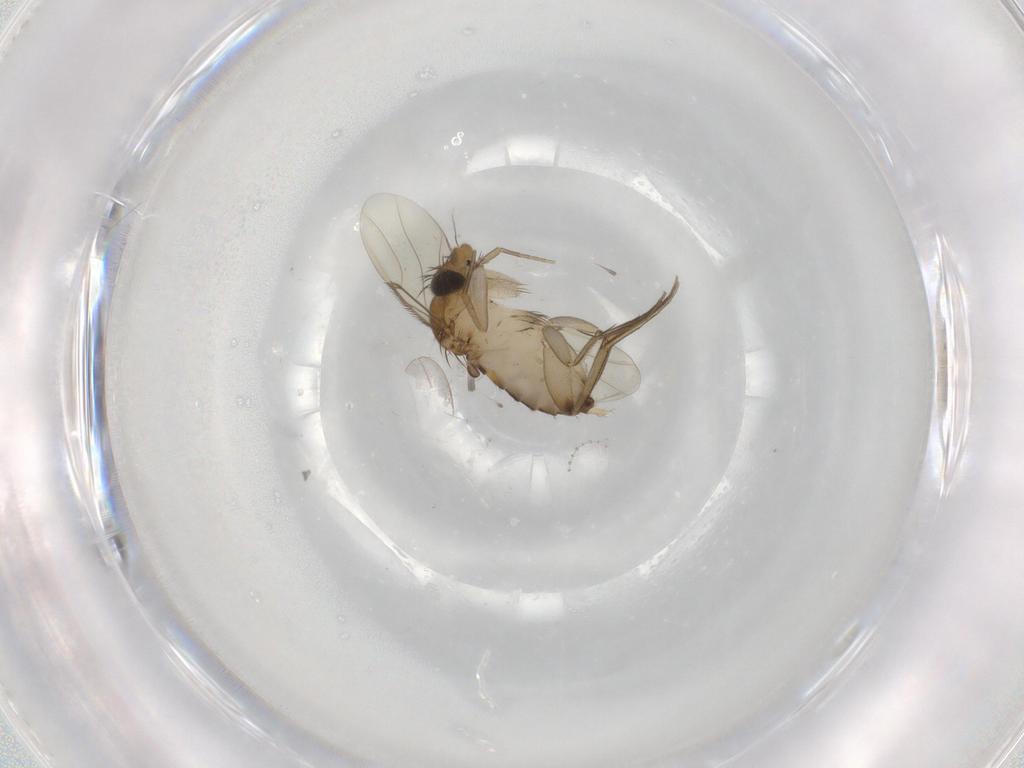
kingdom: Animalia
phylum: Arthropoda
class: Insecta
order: Diptera
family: Phoridae
